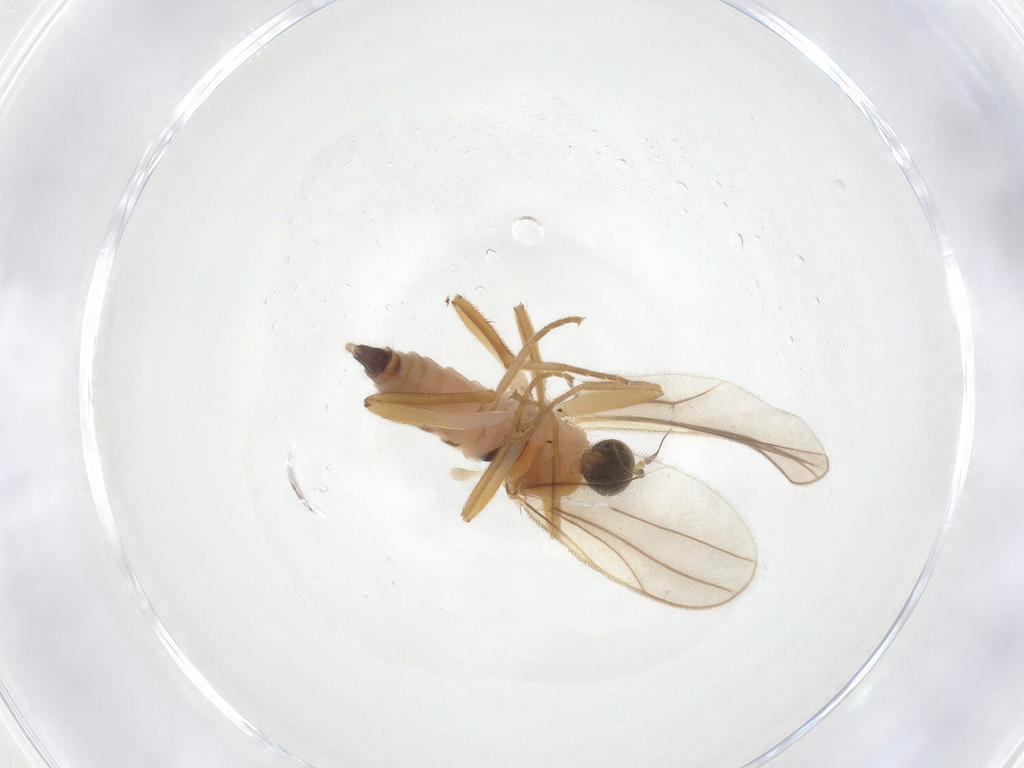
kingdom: Animalia
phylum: Arthropoda
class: Insecta
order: Diptera
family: Hybotidae
